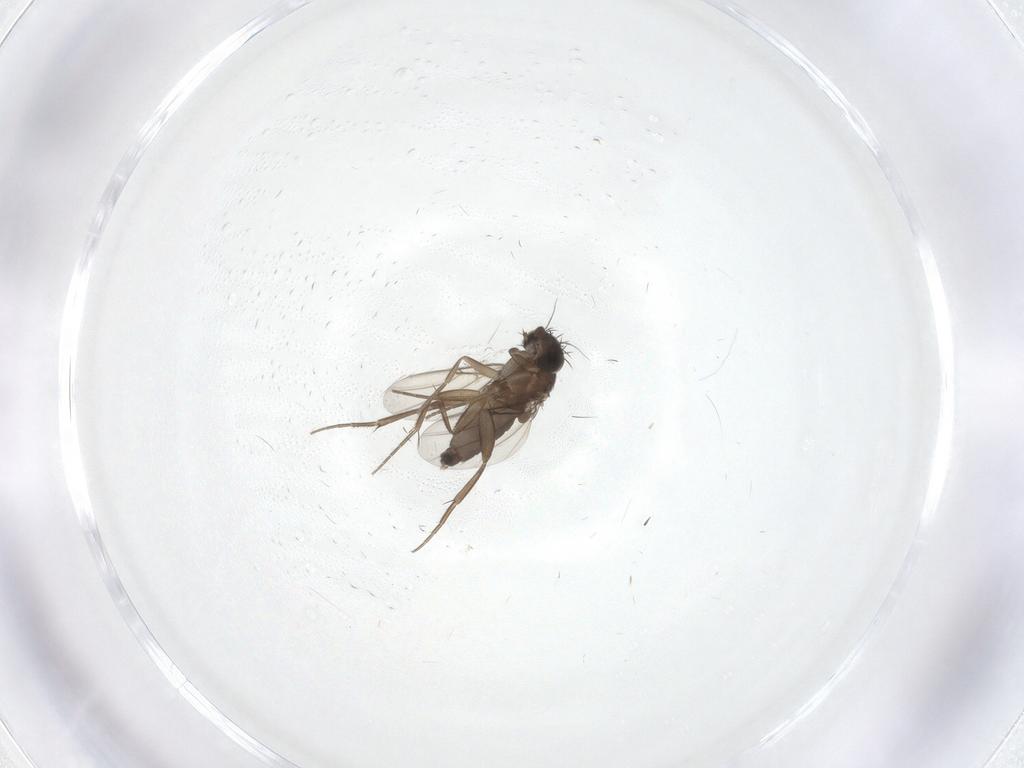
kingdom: Animalia
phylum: Arthropoda
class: Insecta
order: Diptera
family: Phoridae
